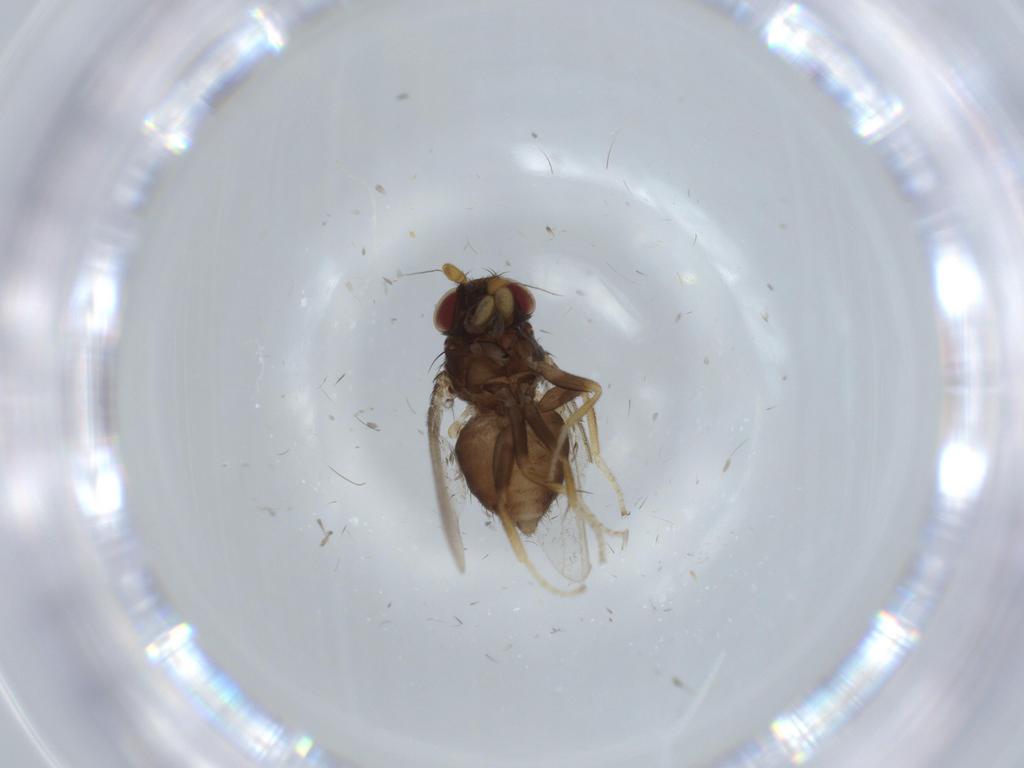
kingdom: Animalia
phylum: Arthropoda
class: Insecta
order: Diptera
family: Milichiidae
